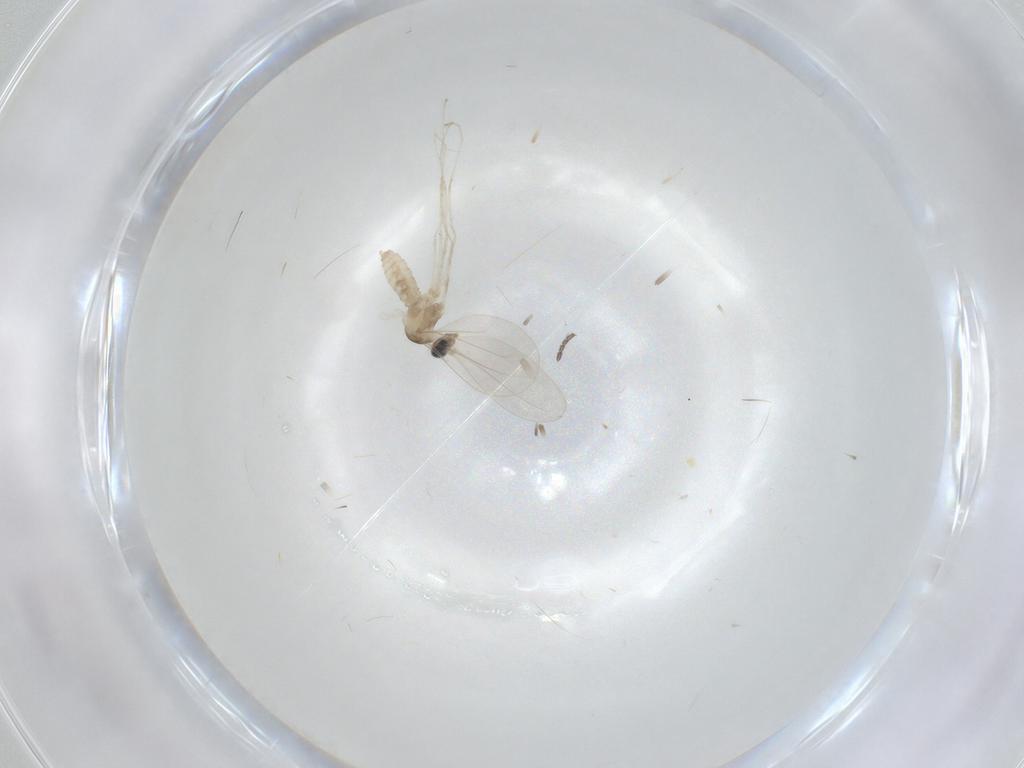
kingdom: Animalia
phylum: Arthropoda
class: Insecta
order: Diptera
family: Cecidomyiidae
